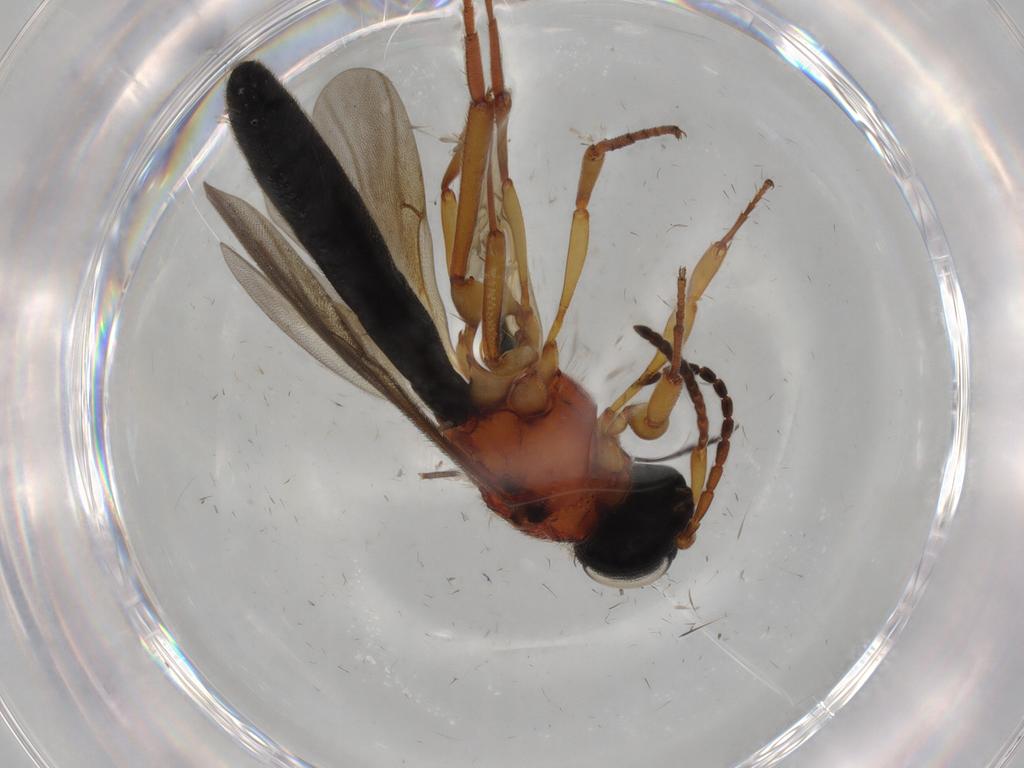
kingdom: Animalia
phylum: Arthropoda
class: Insecta
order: Hymenoptera
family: Scelionidae
